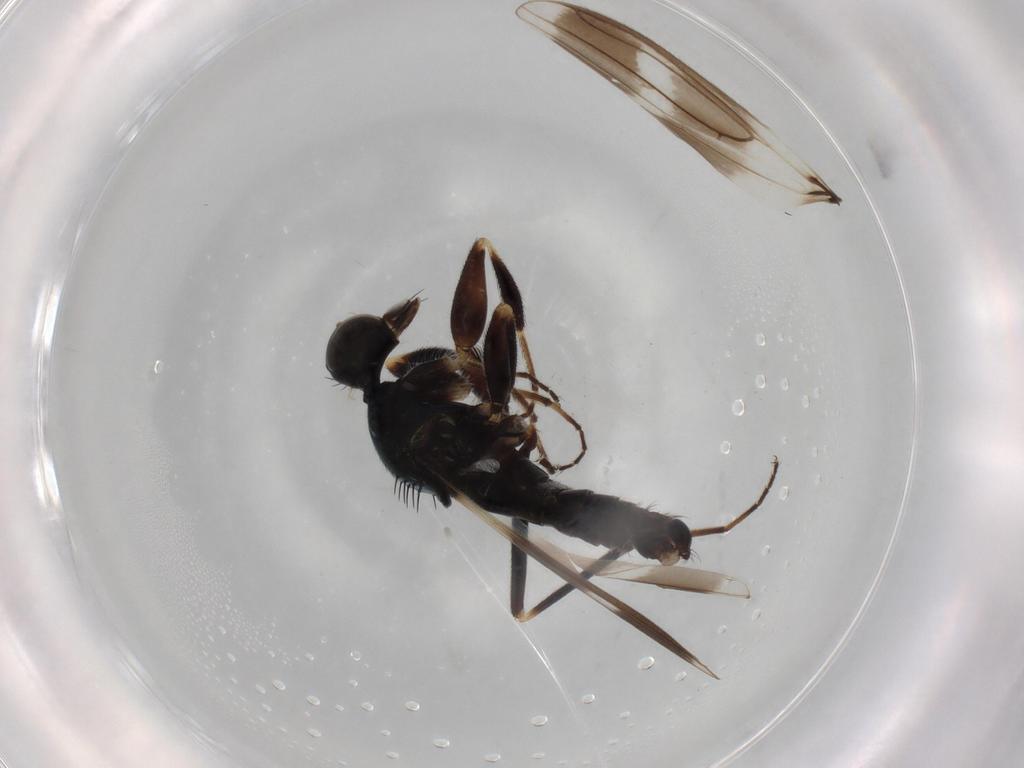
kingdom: Animalia
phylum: Arthropoda
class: Insecta
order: Diptera
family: Hybotidae
